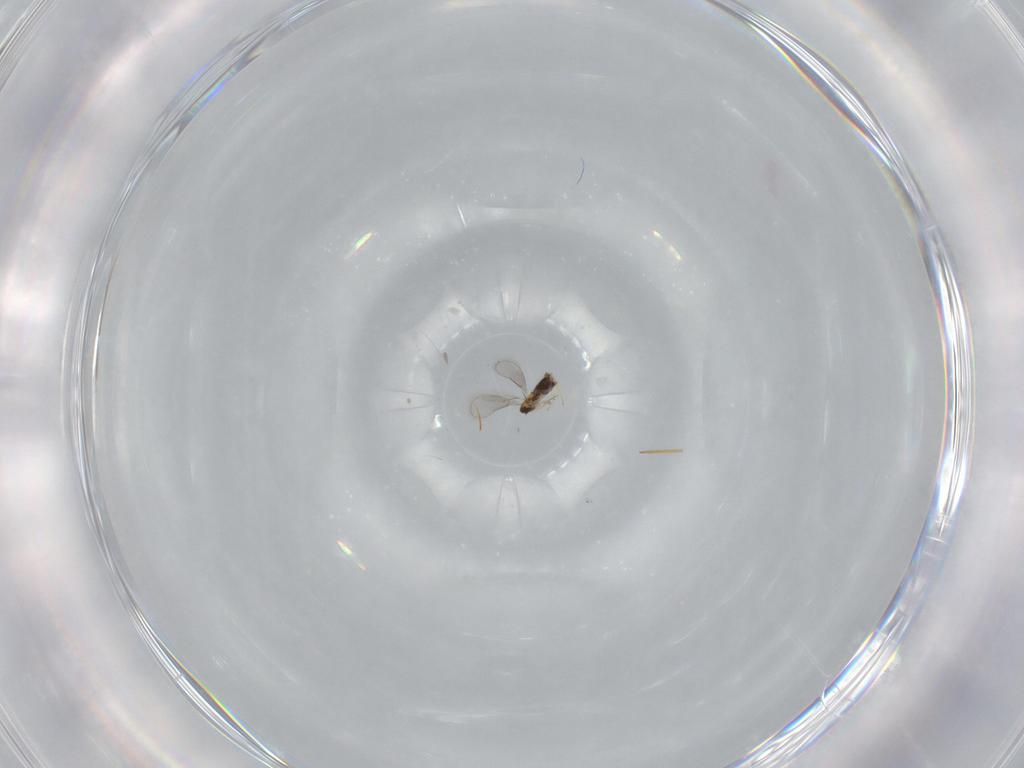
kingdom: Animalia
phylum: Arthropoda
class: Insecta
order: Hymenoptera
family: Aphelinidae
